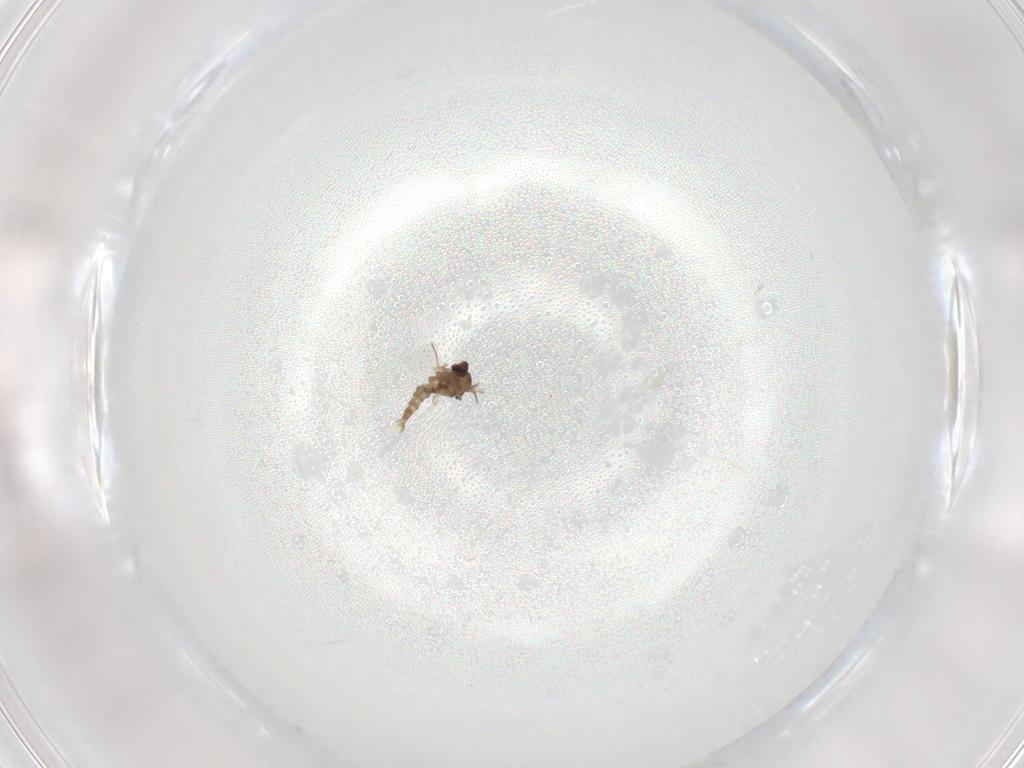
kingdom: Animalia
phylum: Arthropoda
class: Insecta
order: Diptera
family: Cecidomyiidae
